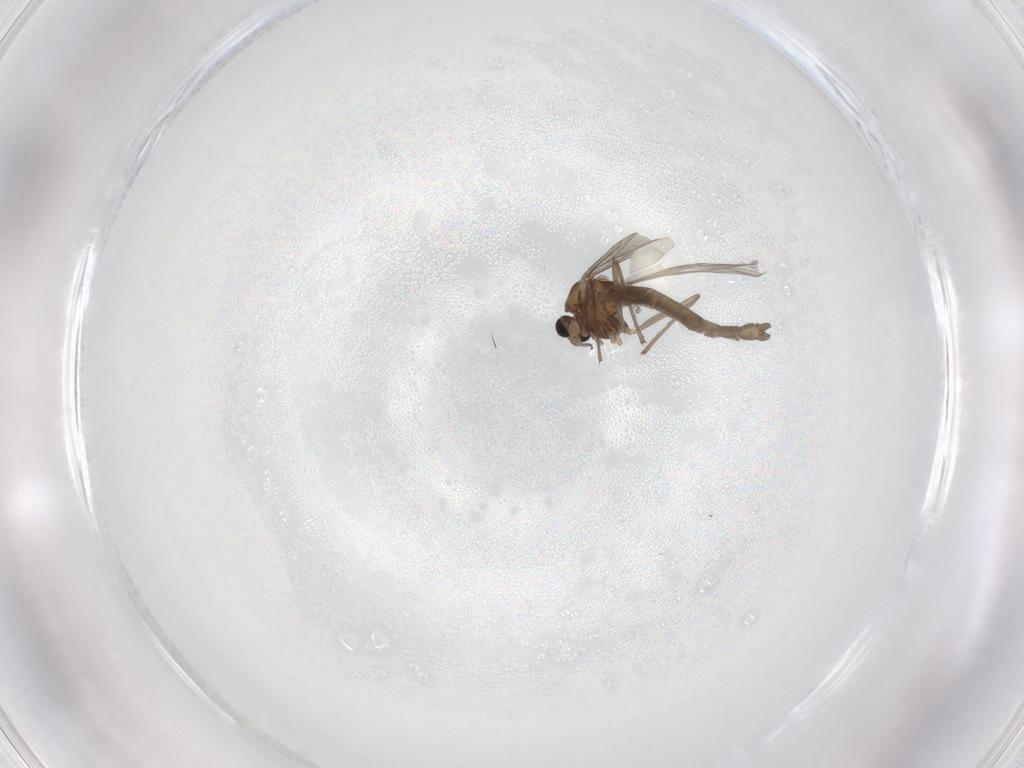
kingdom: Animalia
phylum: Arthropoda
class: Insecta
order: Diptera
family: Chironomidae
